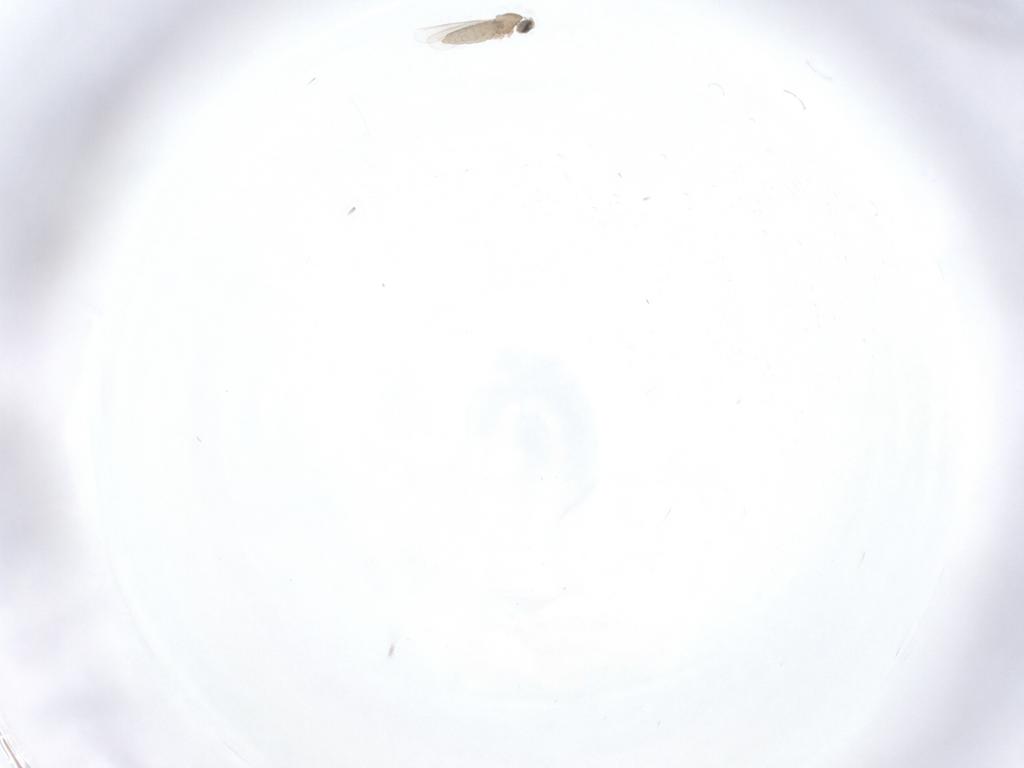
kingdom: Animalia
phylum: Arthropoda
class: Insecta
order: Diptera
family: Cecidomyiidae
